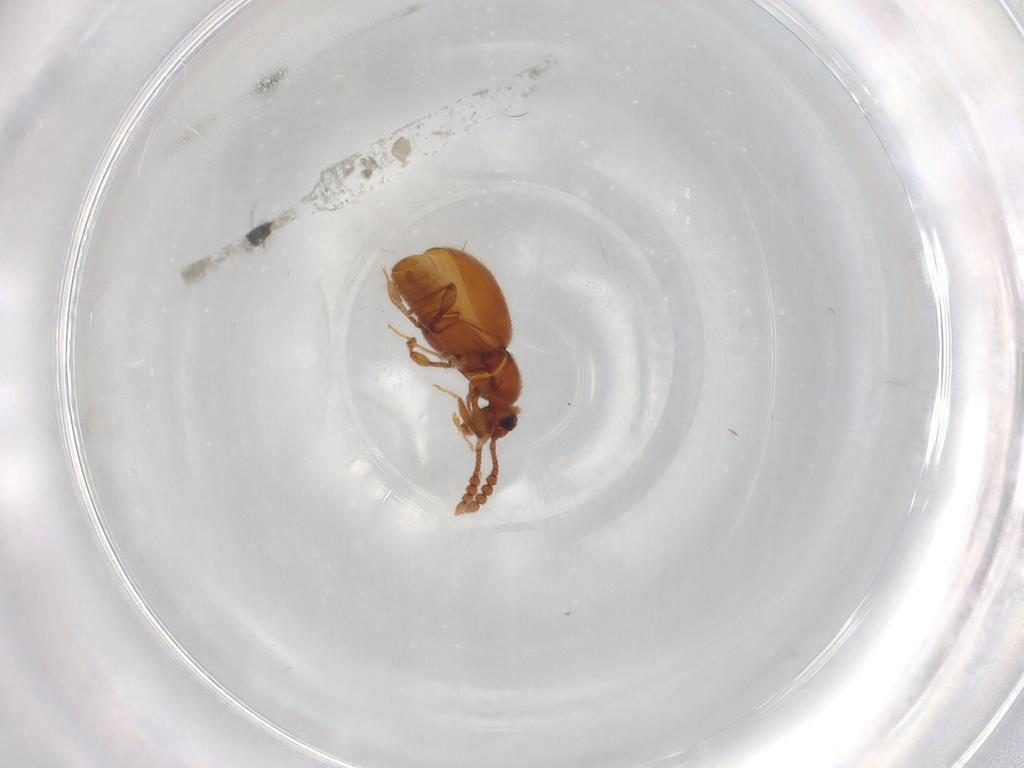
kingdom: Animalia
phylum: Arthropoda
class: Insecta
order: Coleoptera
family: Staphylinidae
